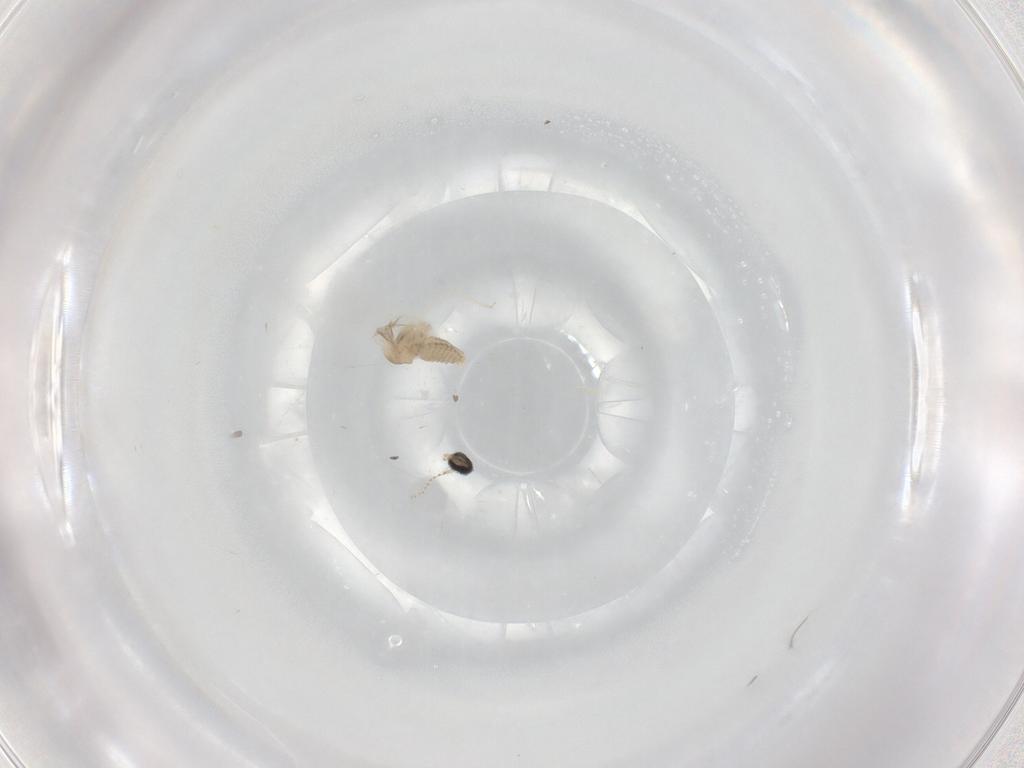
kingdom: Animalia
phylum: Arthropoda
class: Insecta
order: Diptera
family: Cecidomyiidae
